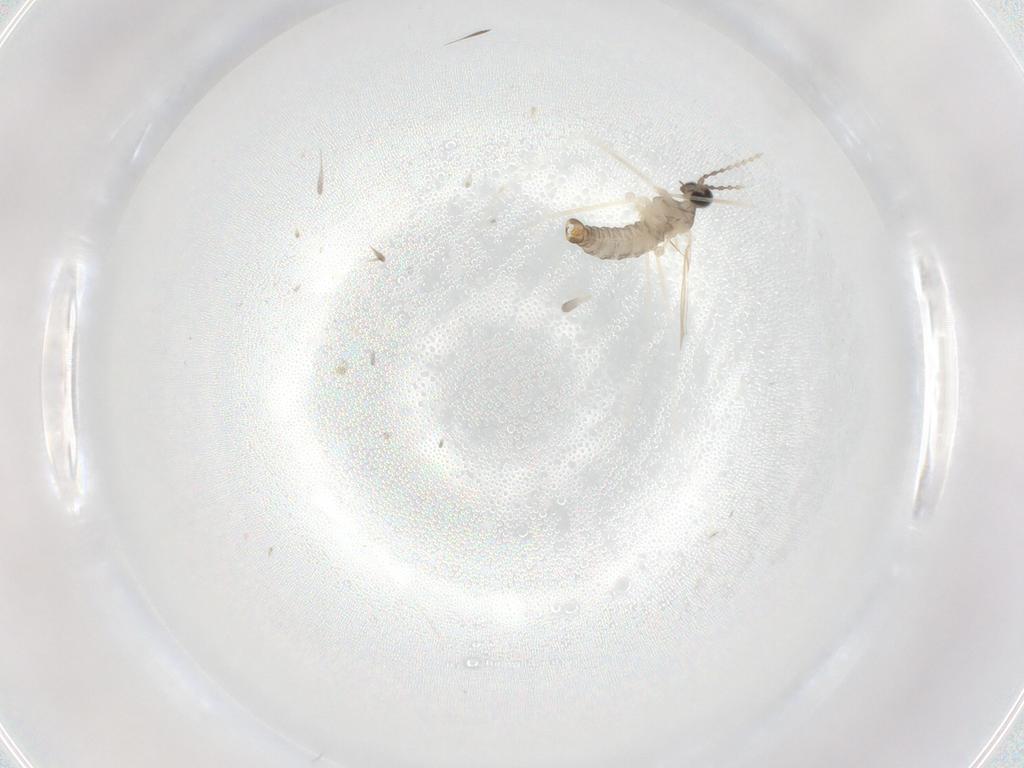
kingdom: Animalia
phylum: Arthropoda
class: Insecta
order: Diptera
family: Cecidomyiidae
